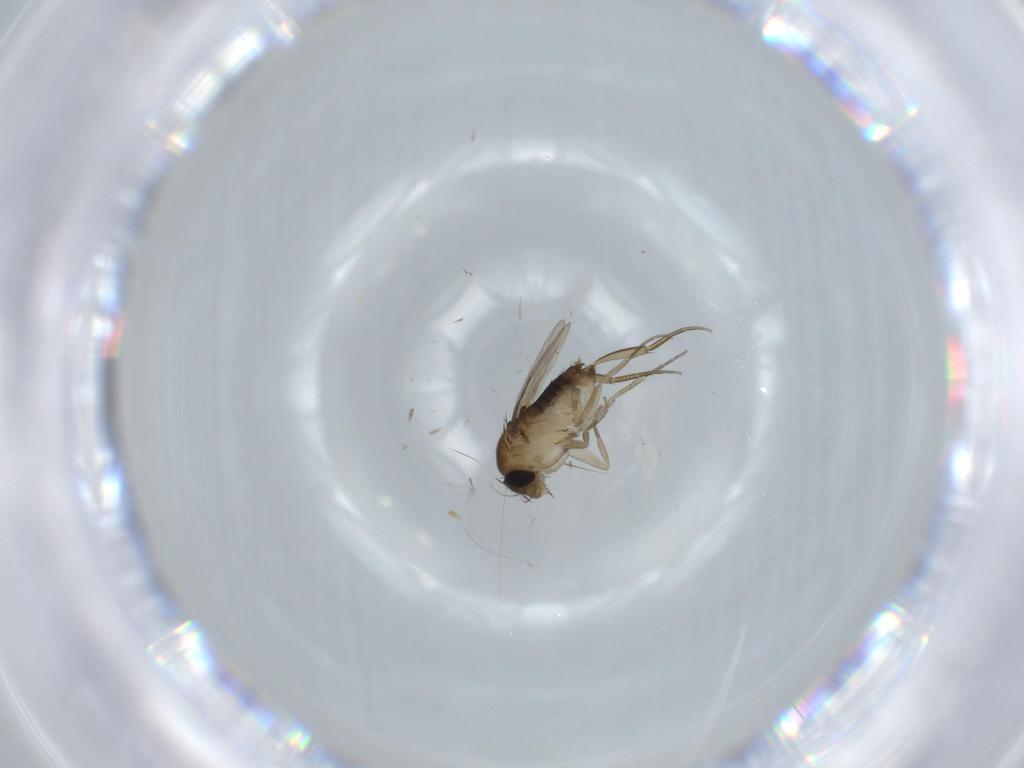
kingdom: Animalia
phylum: Arthropoda
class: Insecta
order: Diptera
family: Phoridae
